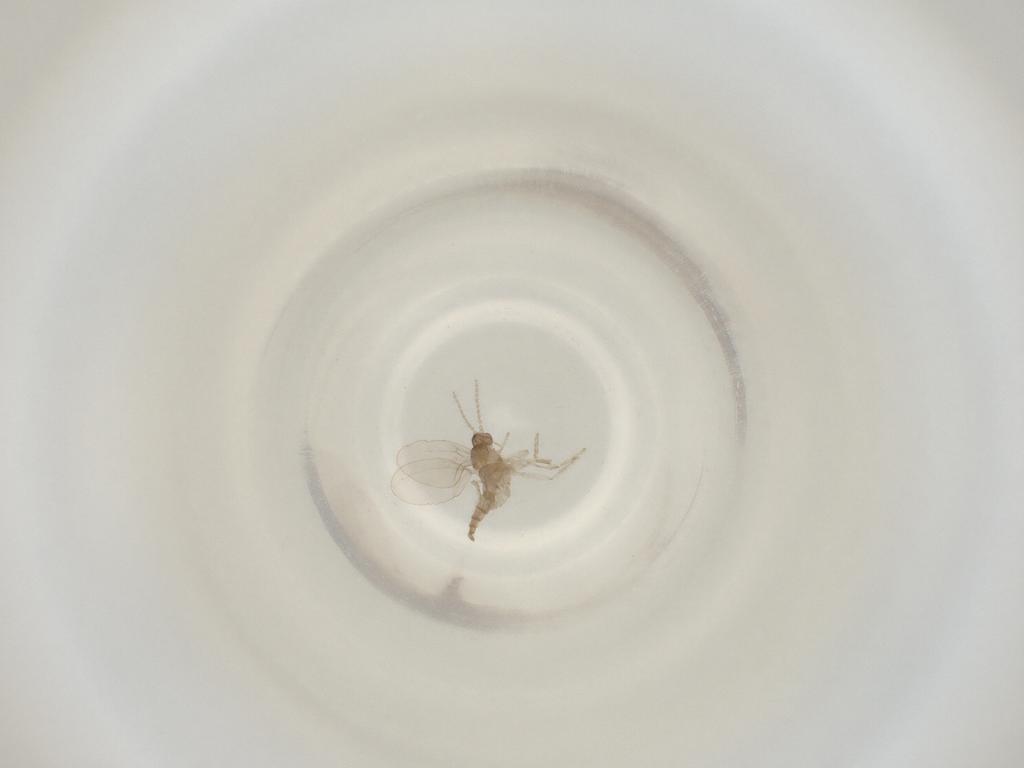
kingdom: Animalia
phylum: Arthropoda
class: Insecta
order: Diptera
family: Cecidomyiidae
